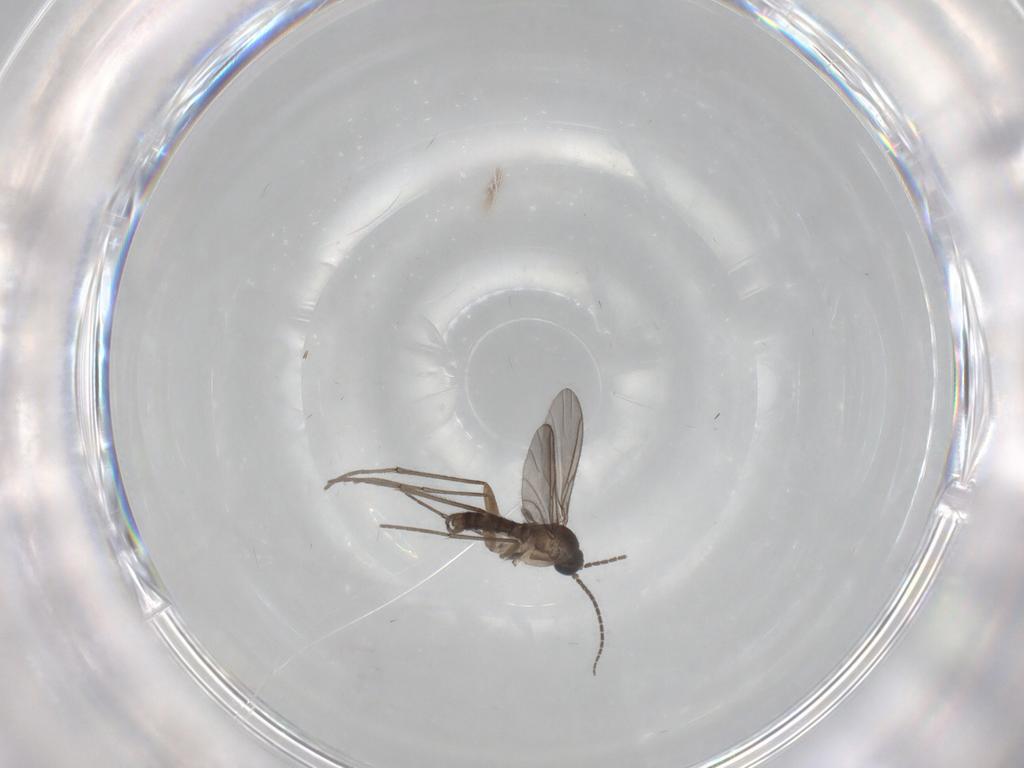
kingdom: Animalia
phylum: Arthropoda
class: Insecta
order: Diptera
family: Sciaridae
